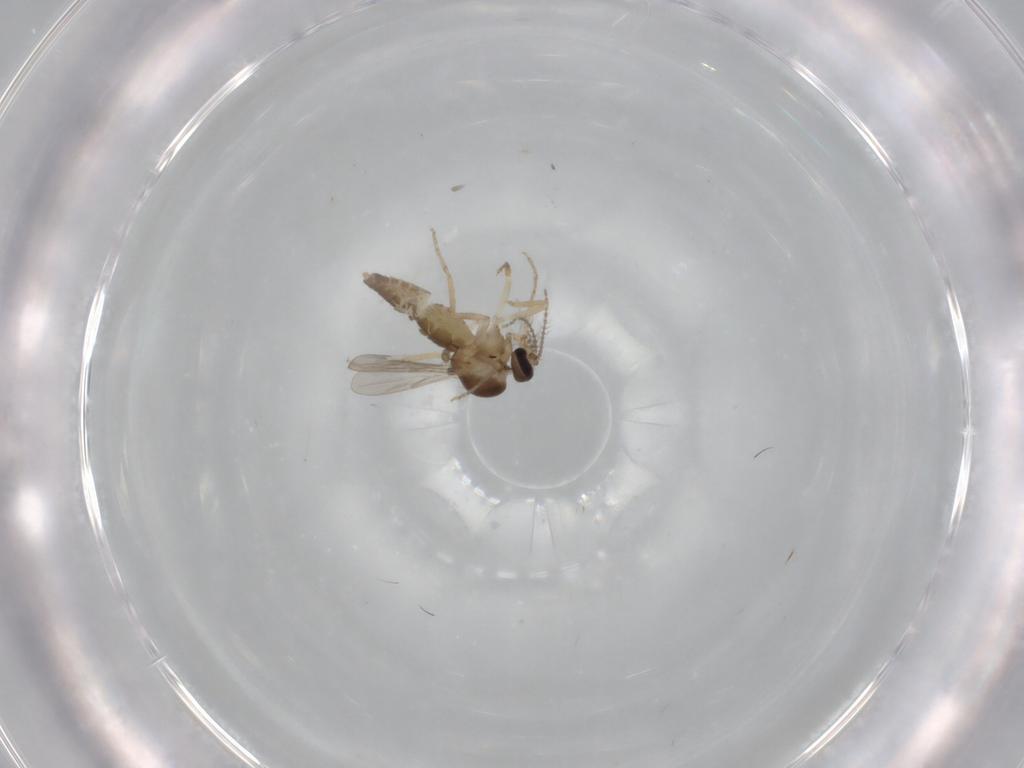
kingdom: Animalia
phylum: Arthropoda
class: Insecta
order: Diptera
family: Ceratopogonidae
